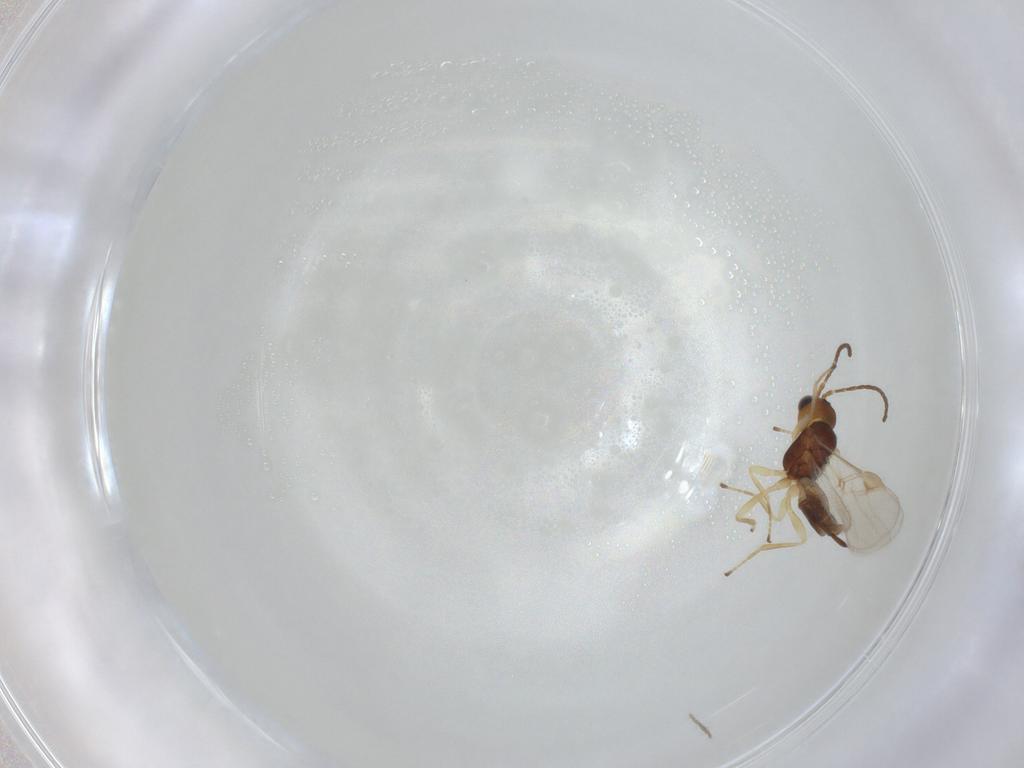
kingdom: Animalia
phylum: Arthropoda
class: Insecta
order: Hymenoptera
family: Braconidae
